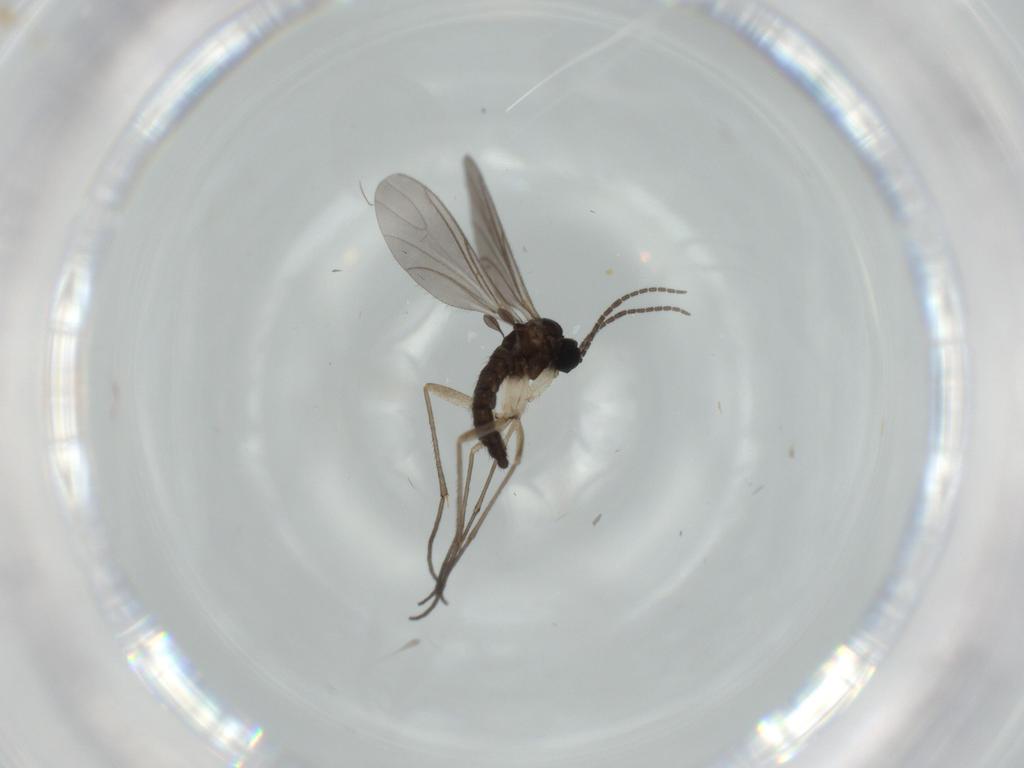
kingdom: Animalia
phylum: Arthropoda
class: Insecta
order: Diptera
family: Sciaridae
